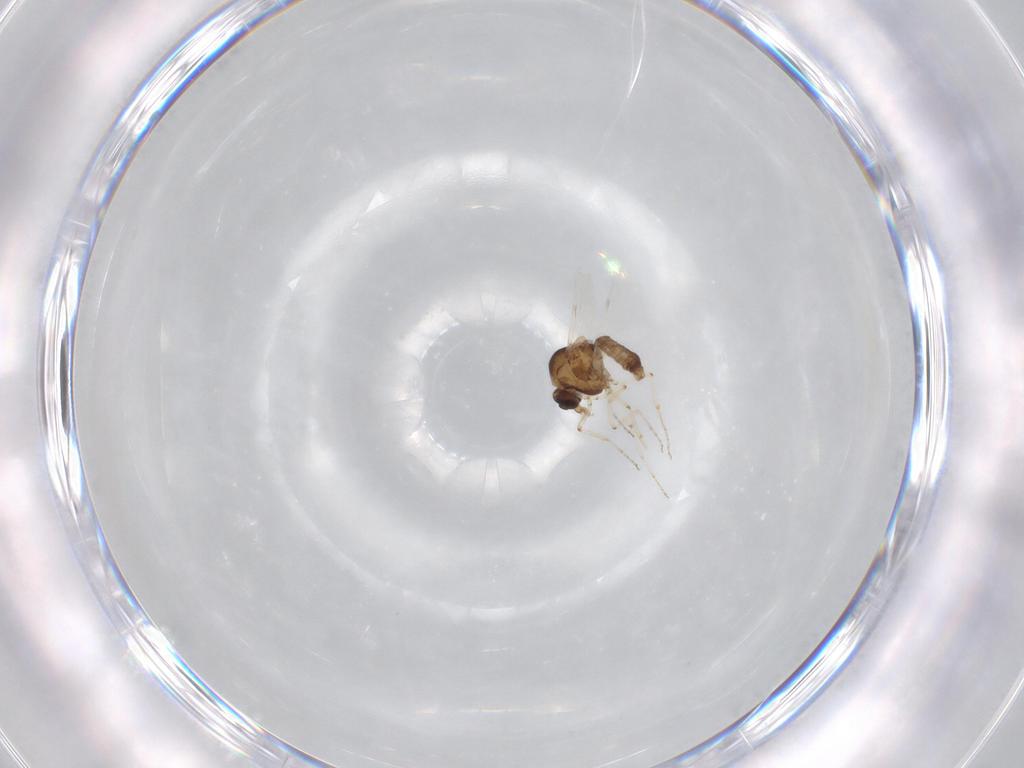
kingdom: Animalia
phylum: Arthropoda
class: Insecta
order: Diptera
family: Ceratopogonidae
